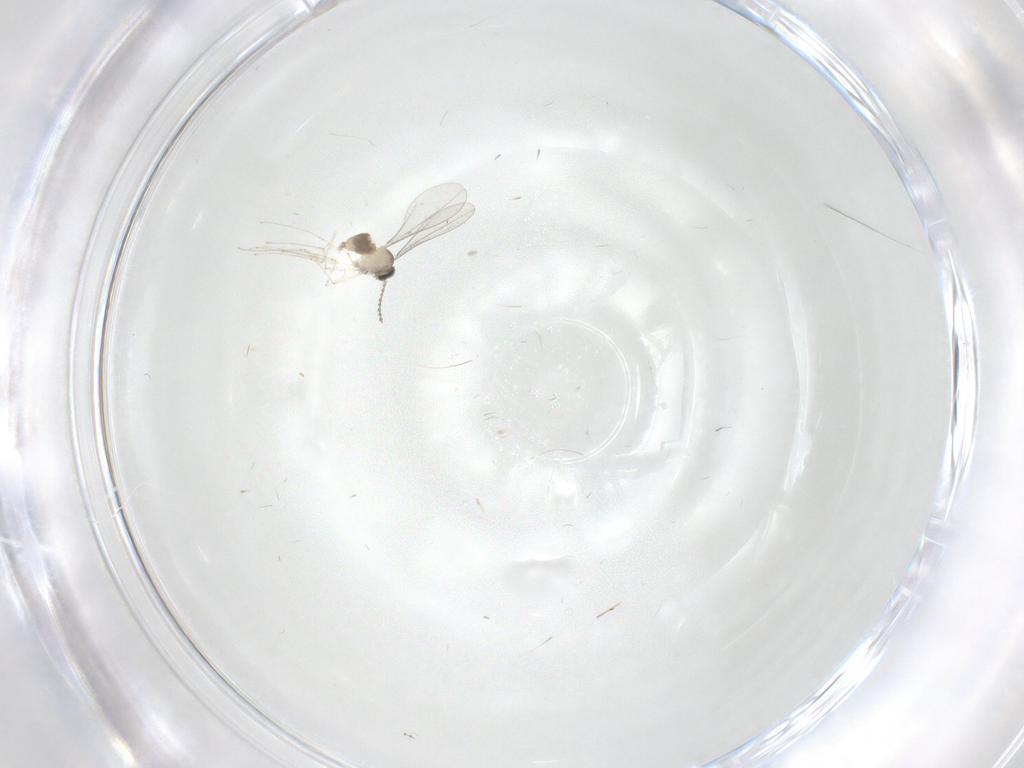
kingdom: Animalia
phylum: Arthropoda
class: Insecta
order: Diptera
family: Cecidomyiidae
